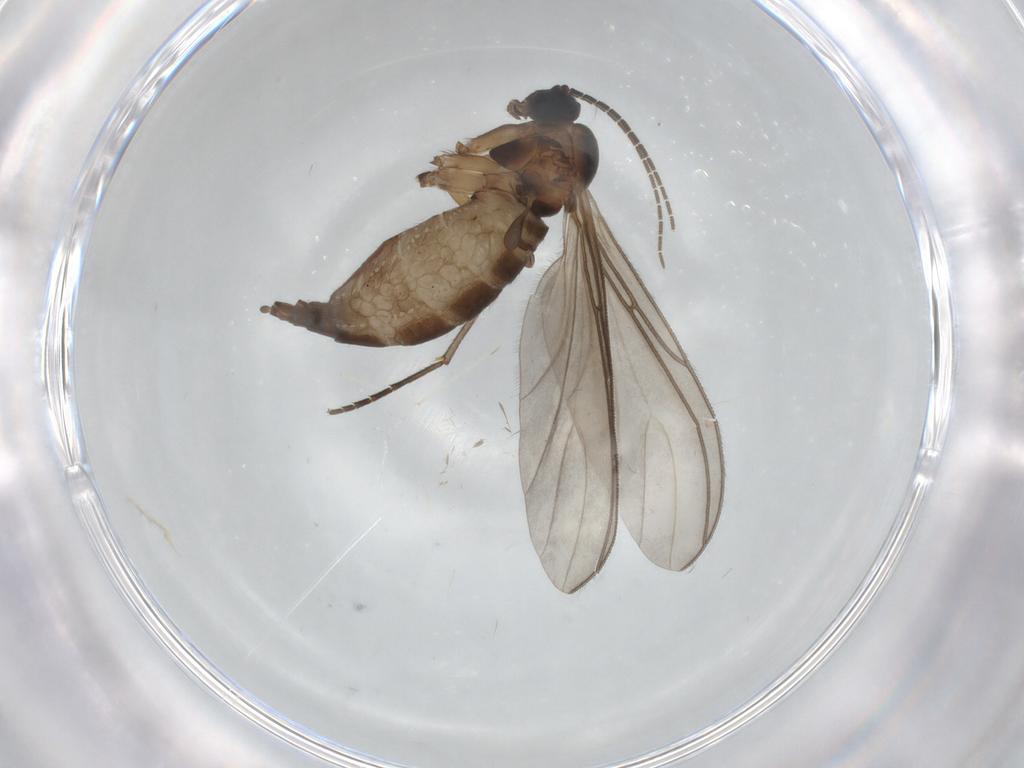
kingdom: Animalia
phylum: Arthropoda
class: Insecta
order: Diptera
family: Sciaridae
